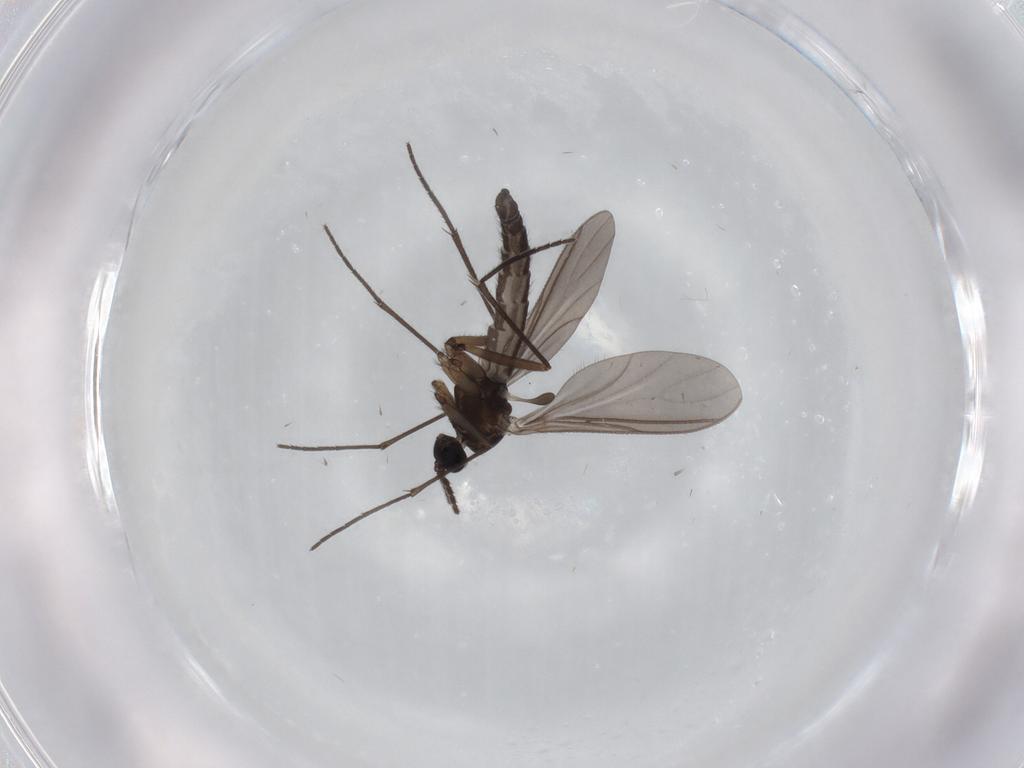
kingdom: Animalia
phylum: Arthropoda
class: Insecta
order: Diptera
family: Sciaridae
